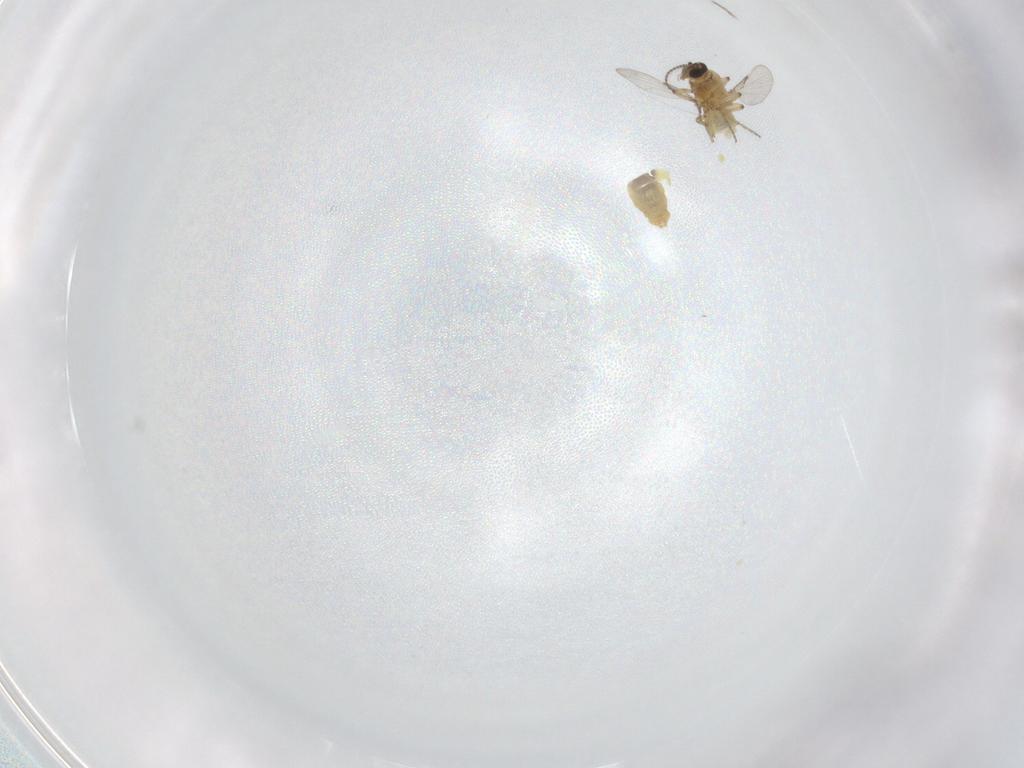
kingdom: Animalia
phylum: Arthropoda
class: Insecta
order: Diptera
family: Ceratopogonidae
